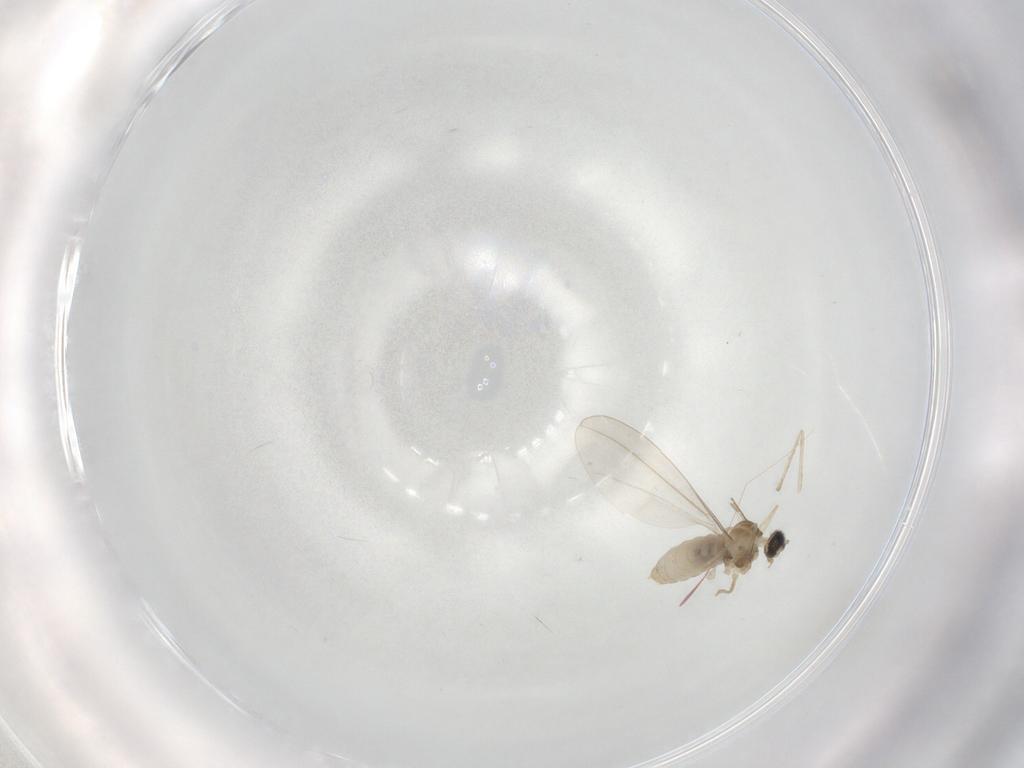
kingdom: Animalia
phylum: Arthropoda
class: Insecta
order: Diptera
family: Cecidomyiidae
